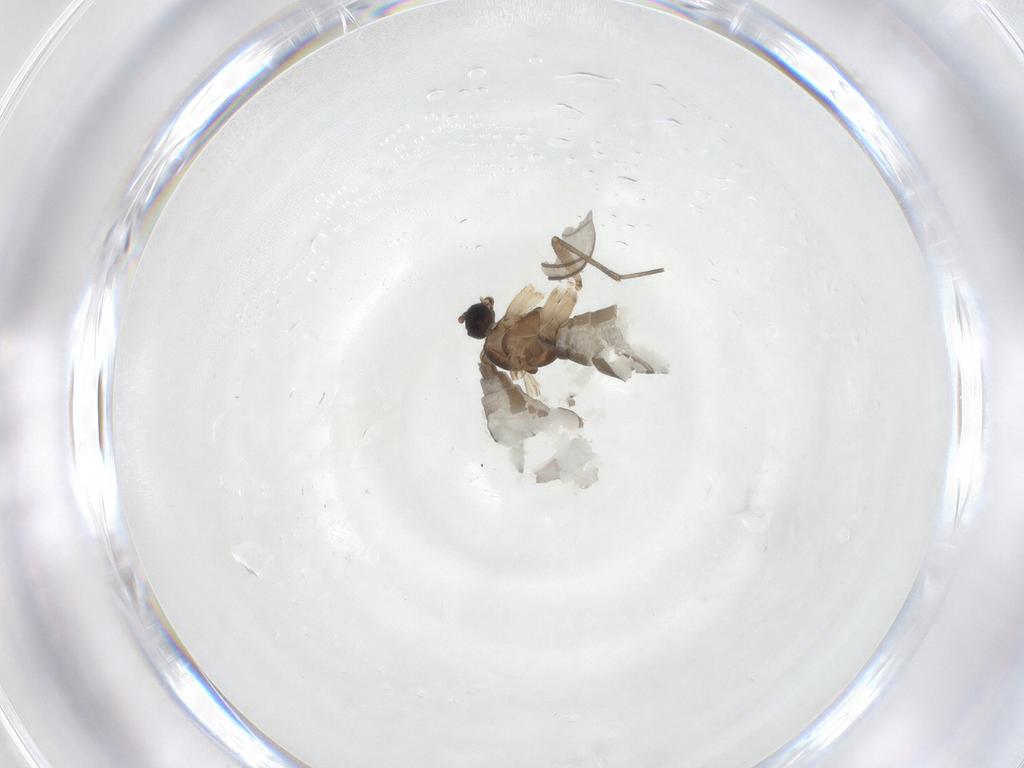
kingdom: Animalia
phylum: Arthropoda
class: Insecta
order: Diptera
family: Sciaridae
